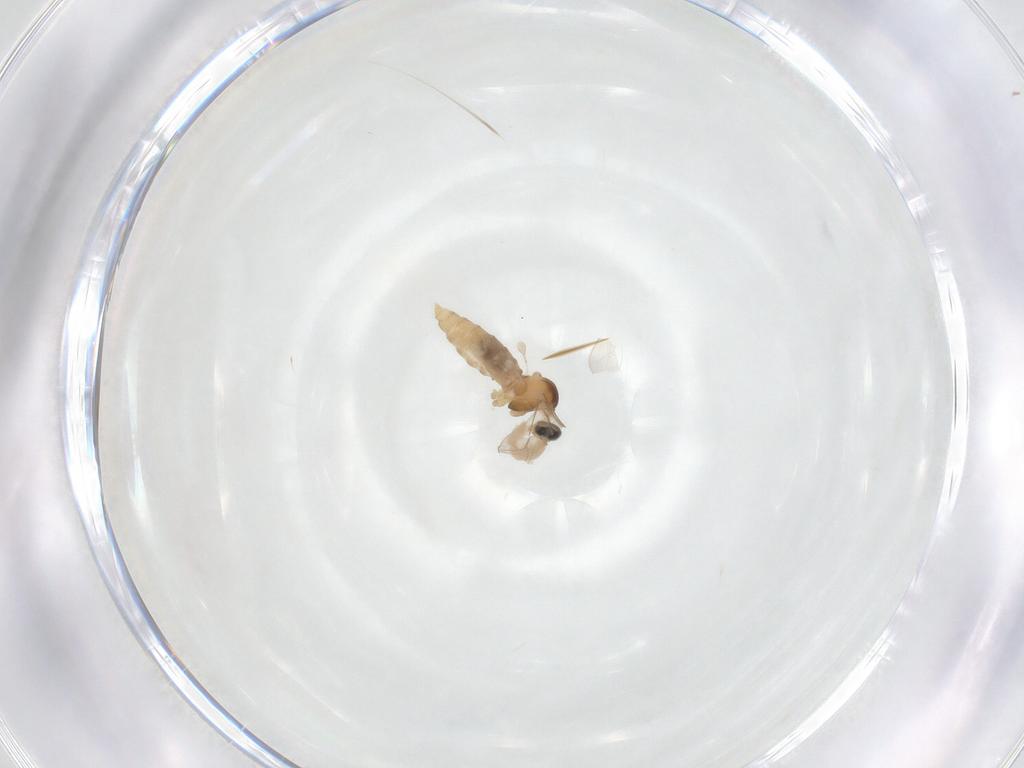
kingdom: Animalia
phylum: Arthropoda
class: Insecta
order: Diptera
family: Cecidomyiidae
